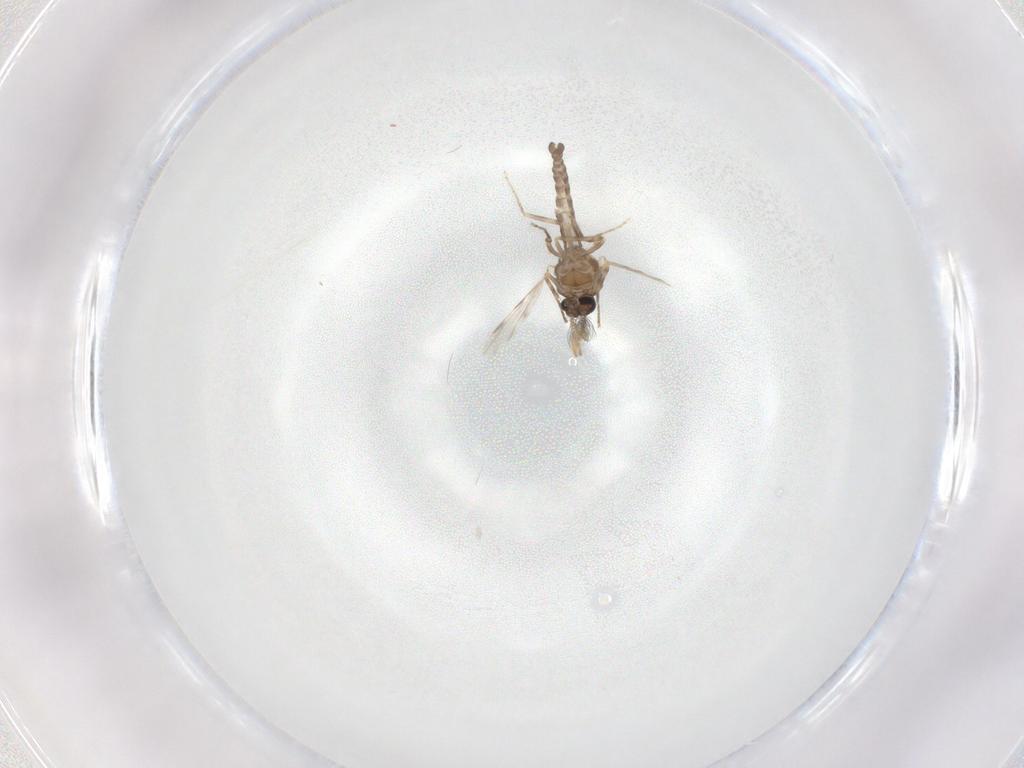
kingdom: Animalia
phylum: Arthropoda
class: Insecta
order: Diptera
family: Ceratopogonidae
